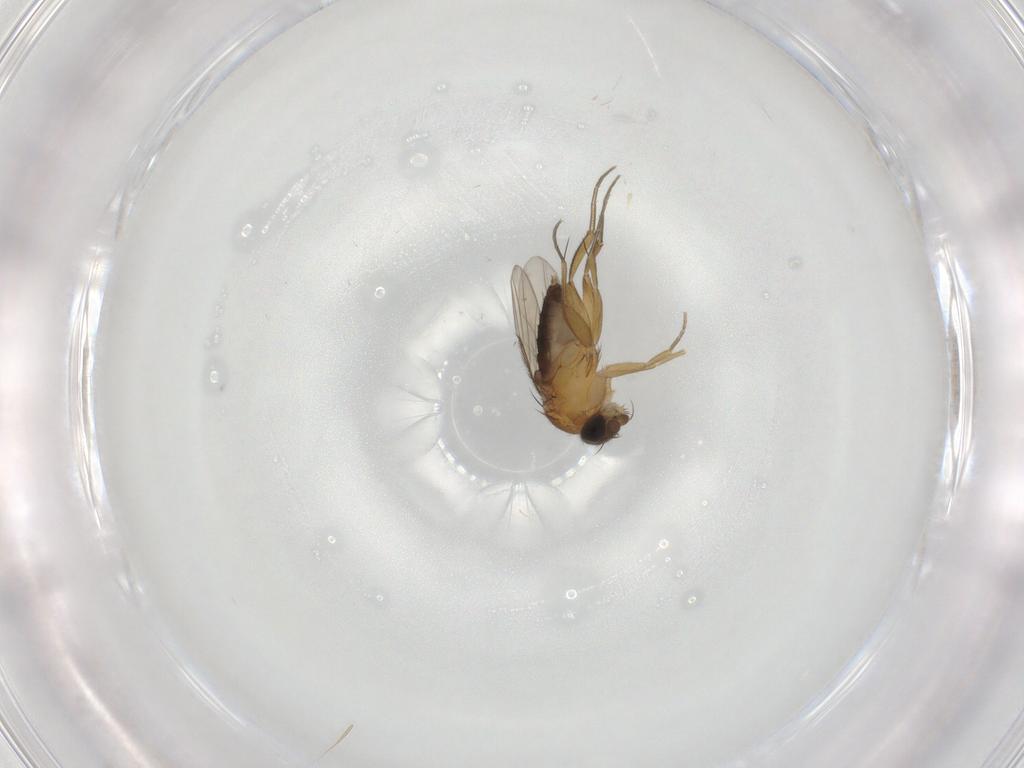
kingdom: Animalia
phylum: Arthropoda
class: Insecta
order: Diptera
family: Phoridae
